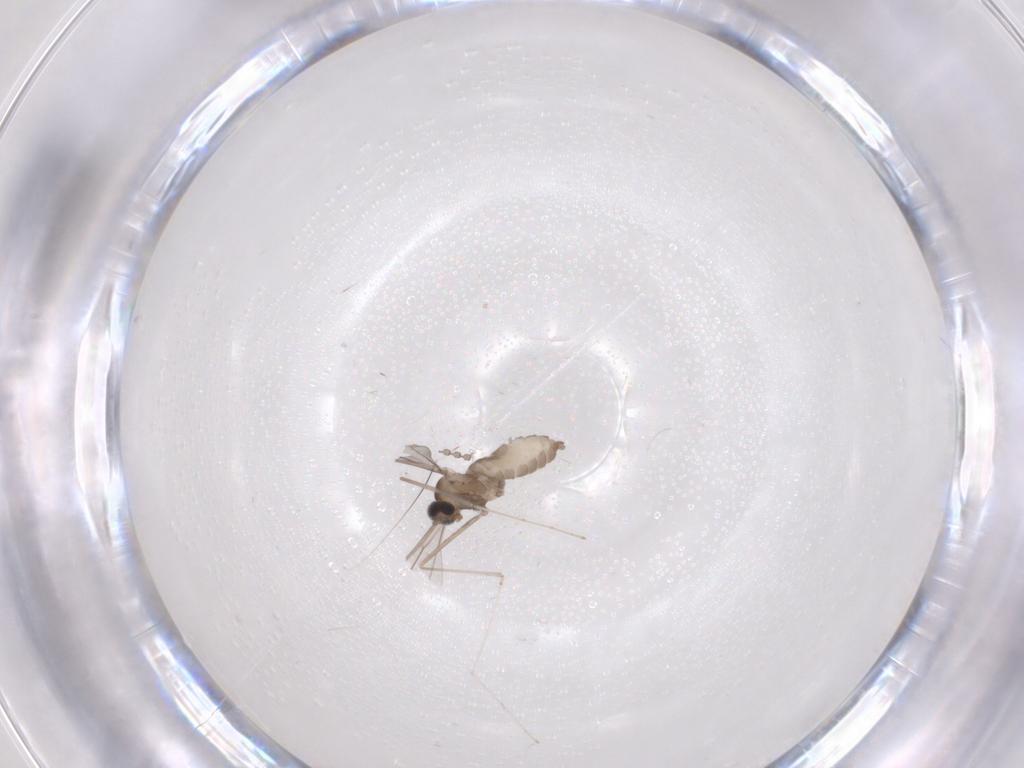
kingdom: Animalia
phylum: Arthropoda
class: Insecta
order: Diptera
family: Cecidomyiidae
